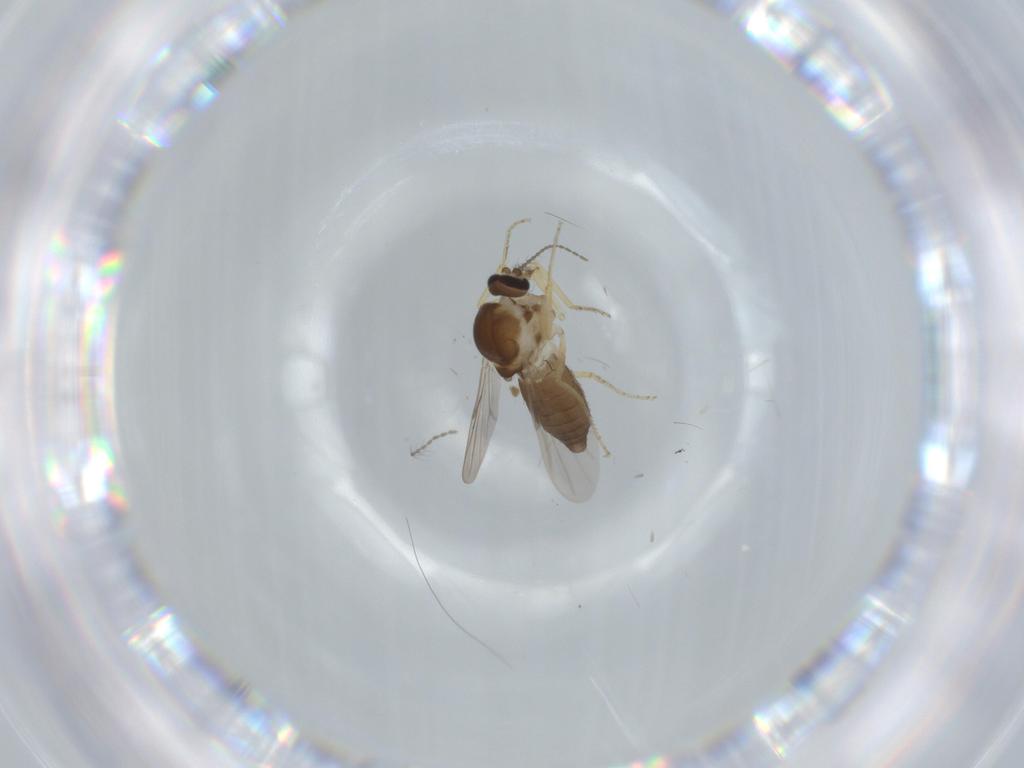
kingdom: Animalia
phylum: Arthropoda
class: Insecta
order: Diptera
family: Ceratopogonidae
